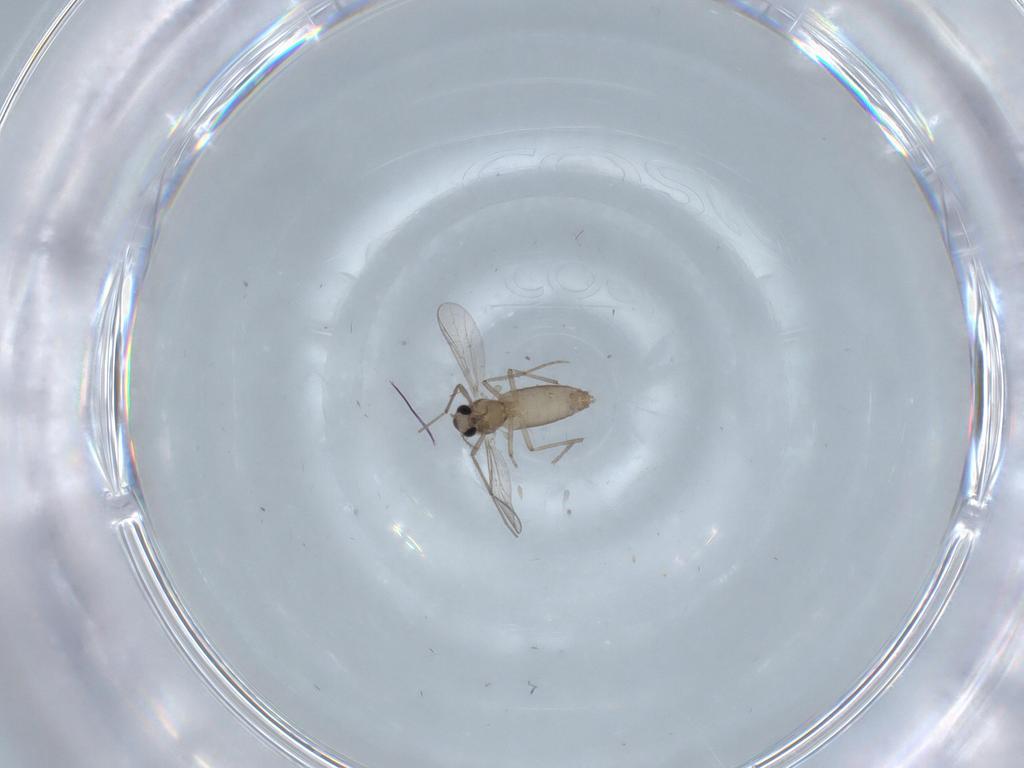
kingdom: Animalia
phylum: Arthropoda
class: Insecta
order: Diptera
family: Chironomidae
